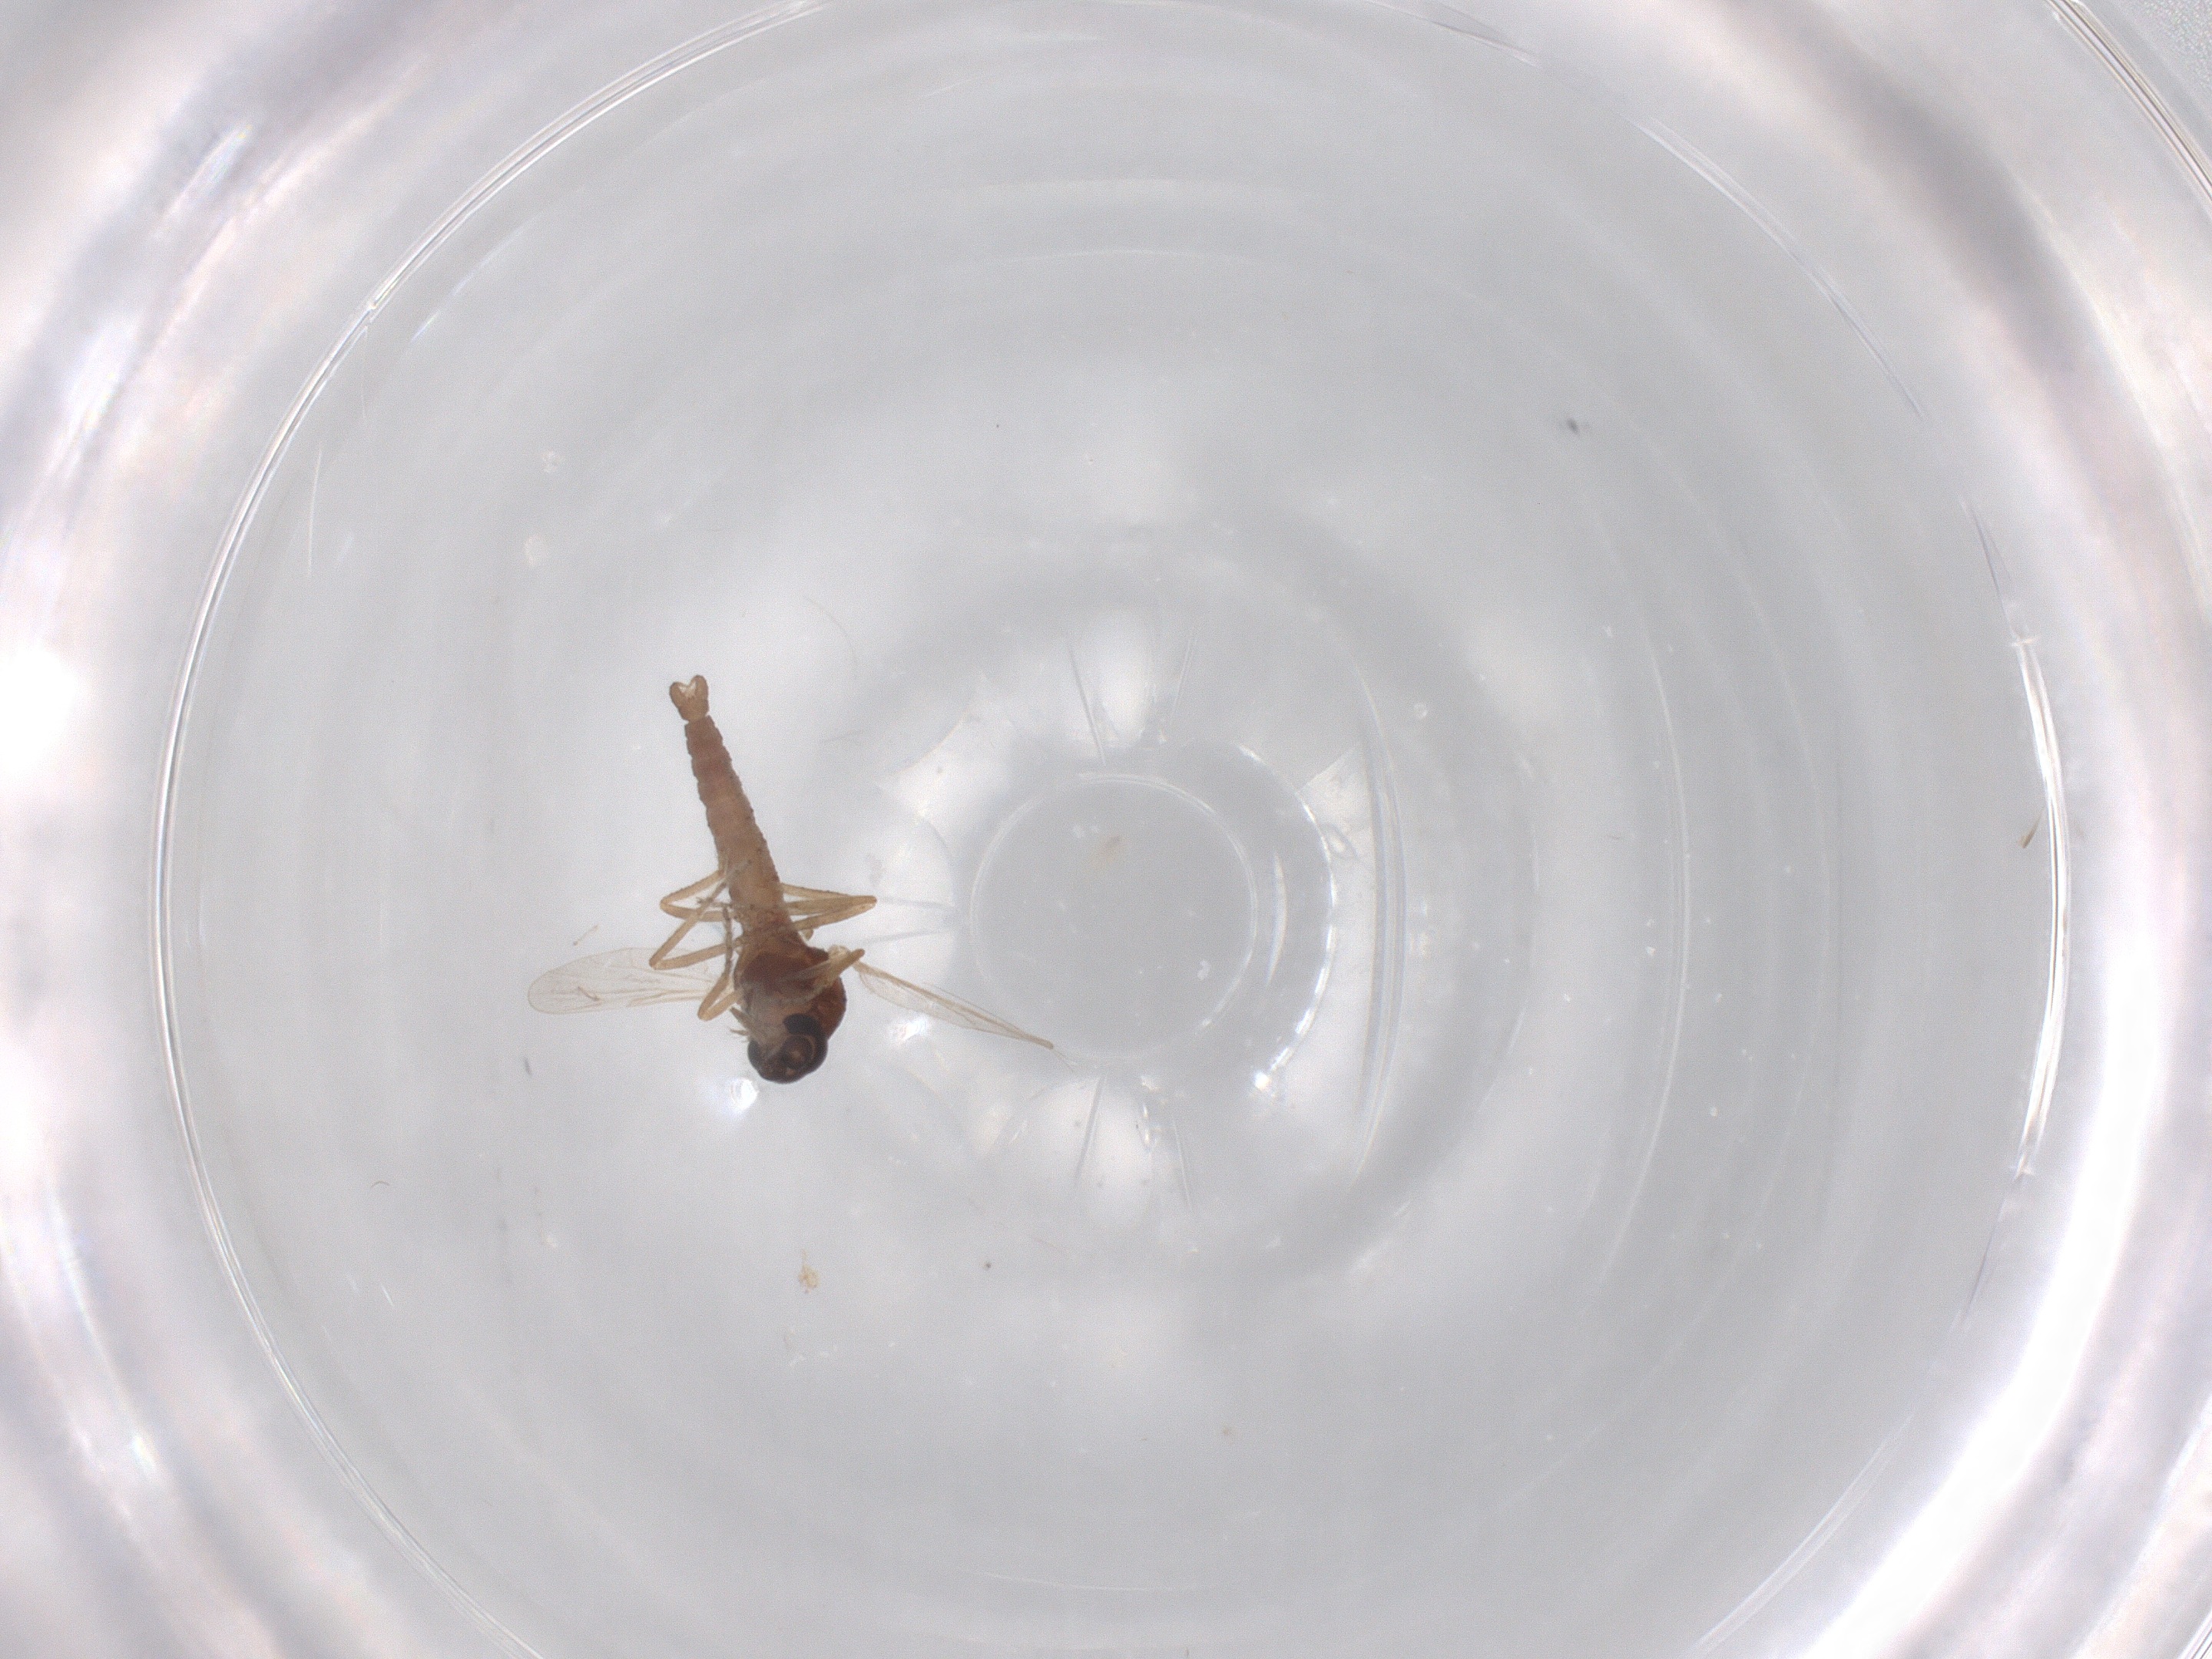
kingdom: Animalia
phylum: Arthropoda
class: Insecta
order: Diptera
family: Ceratopogonidae
